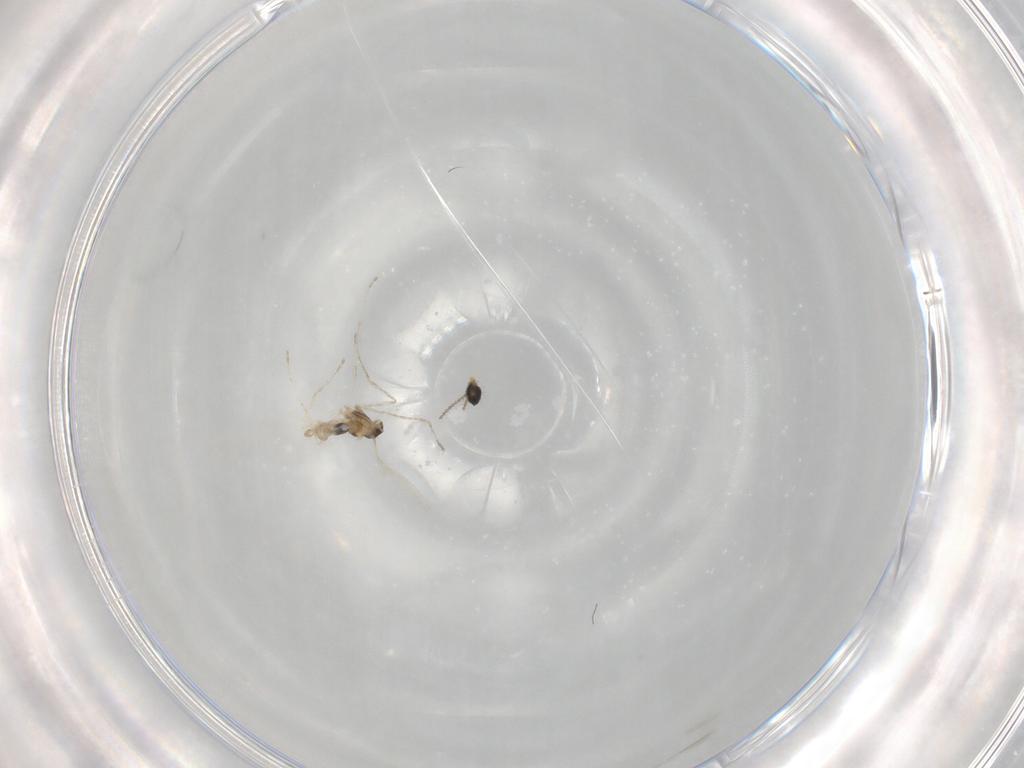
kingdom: Animalia
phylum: Arthropoda
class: Insecta
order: Diptera
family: Cecidomyiidae
